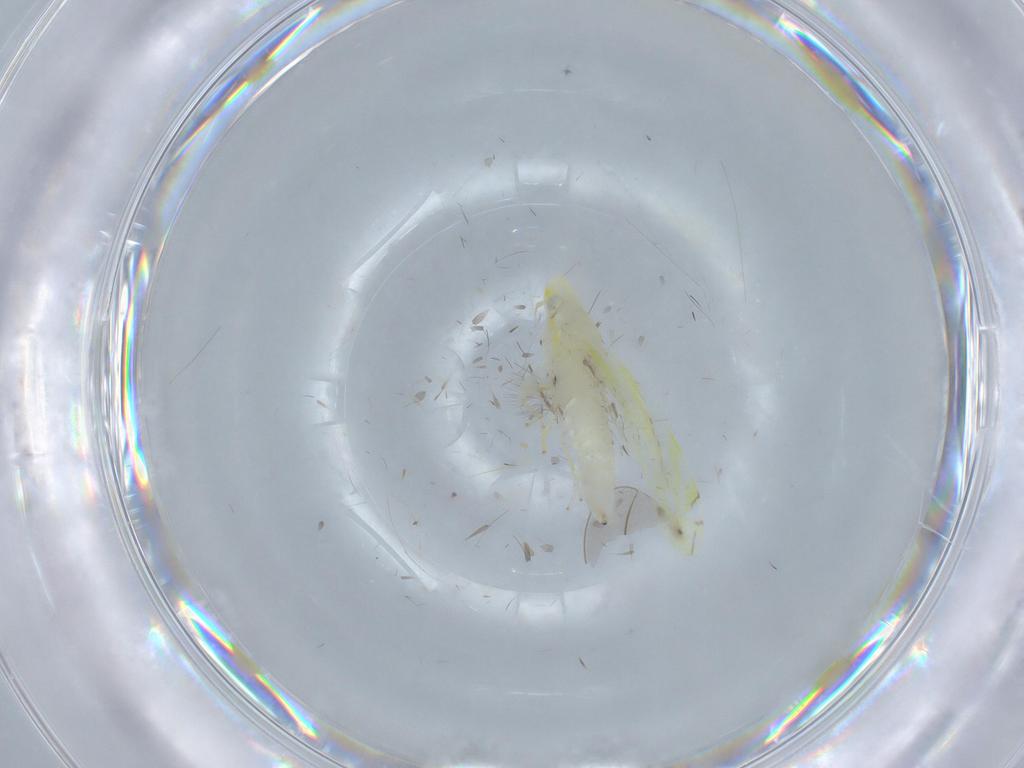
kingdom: Animalia
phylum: Arthropoda
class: Insecta
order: Hemiptera
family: Cicadellidae
